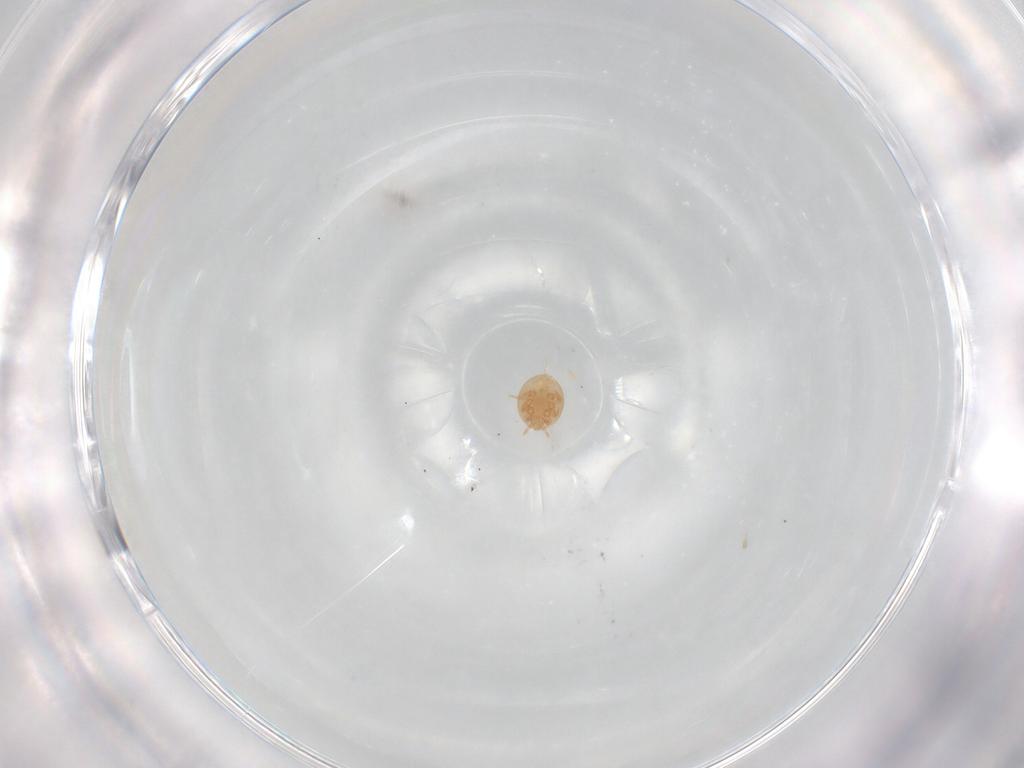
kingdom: Animalia
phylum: Arthropoda
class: Arachnida
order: Mesostigmata
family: Trematuridae
